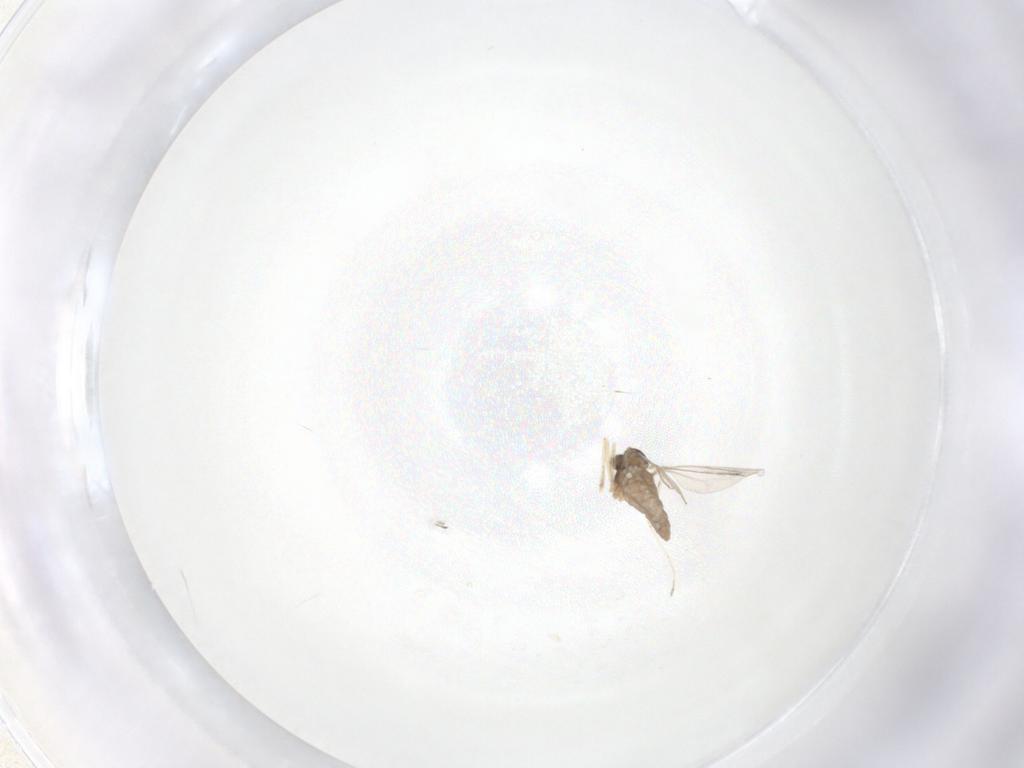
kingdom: Animalia
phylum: Arthropoda
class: Insecta
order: Diptera
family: Cecidomyiidae
